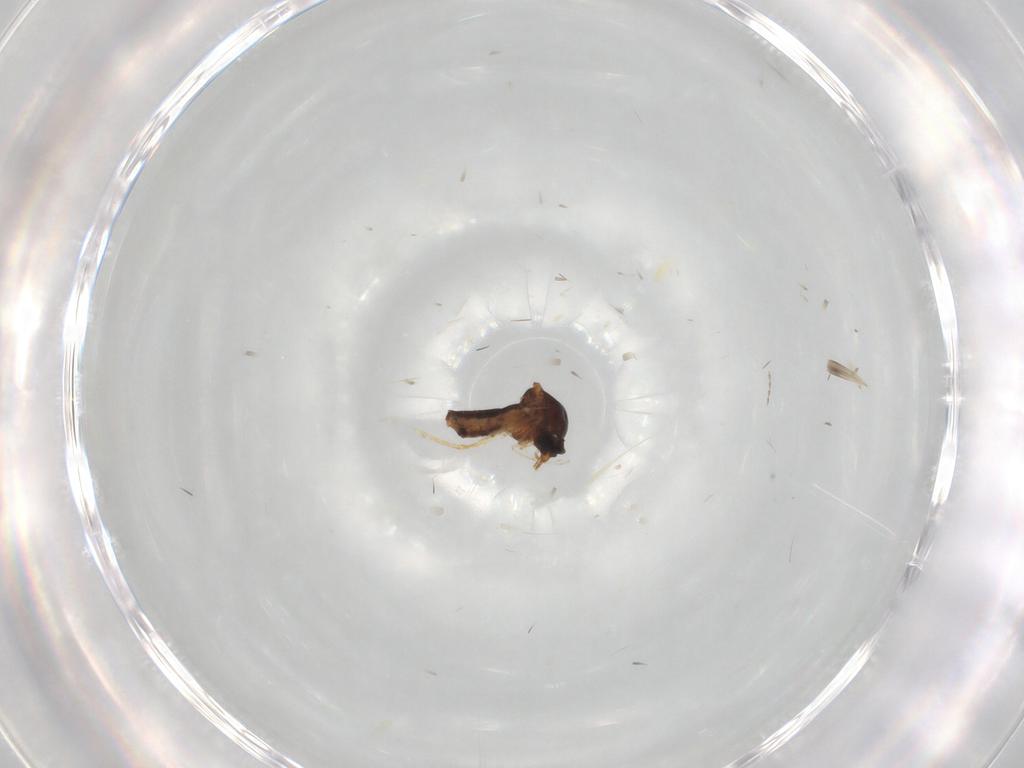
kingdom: Animalia
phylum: Arthropoda
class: Insecta
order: Diptera
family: Ceratopogonidae
